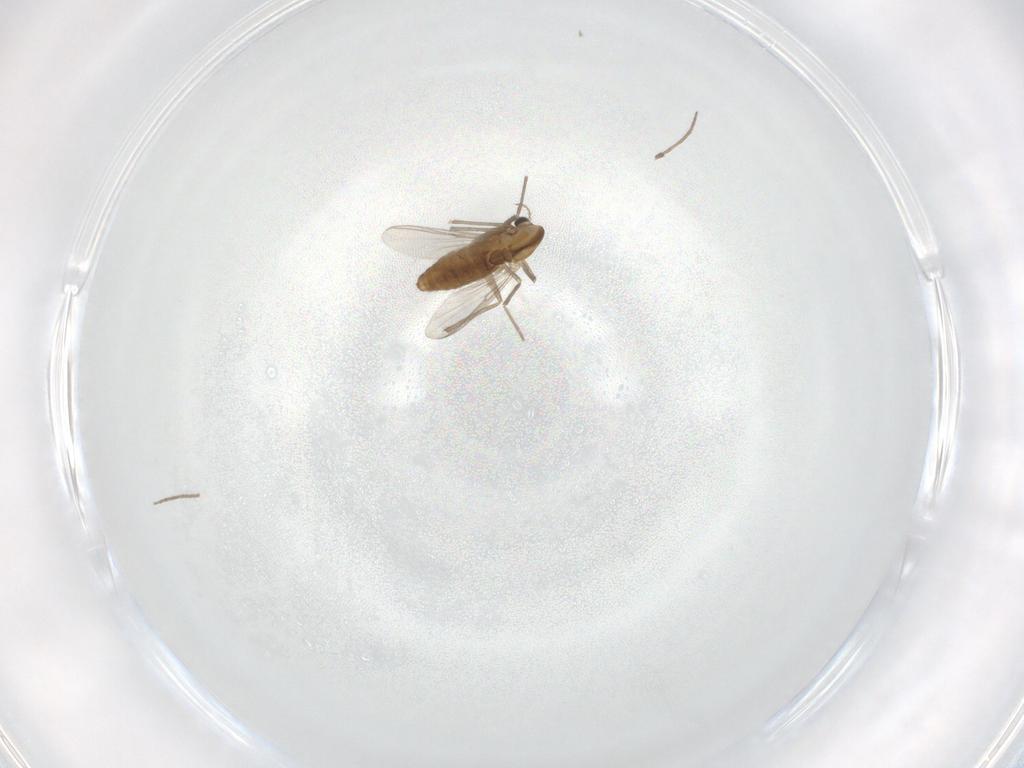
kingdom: Animalia
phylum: Arthropoda
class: Insecta
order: Diptera
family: Chironomidae
